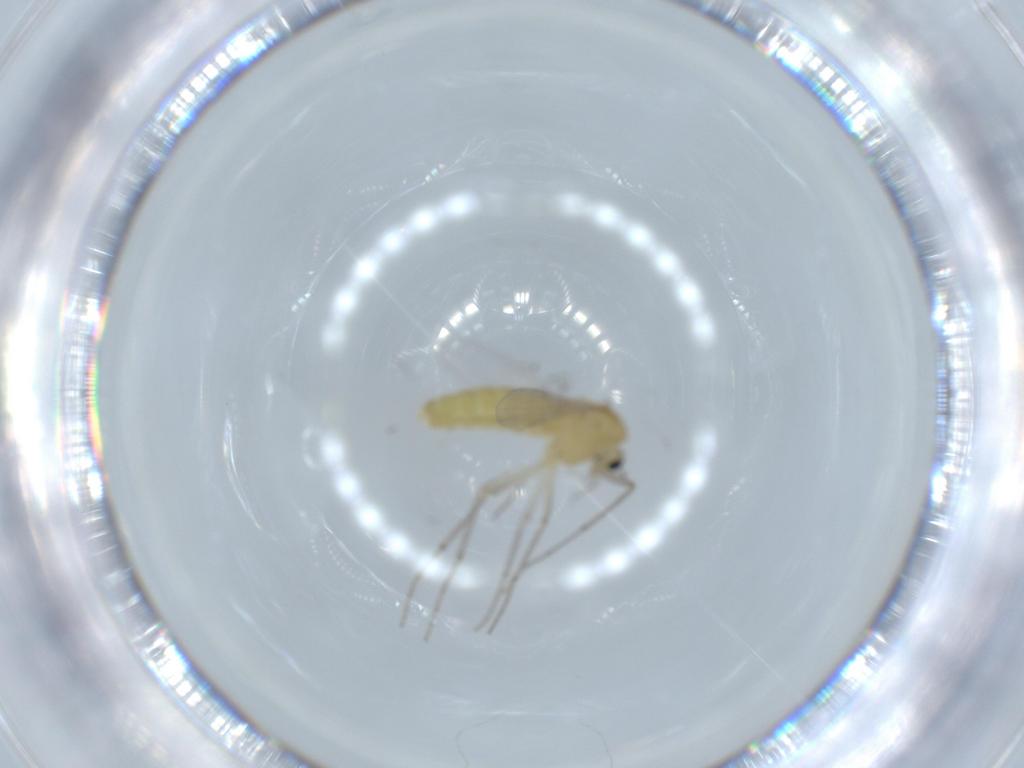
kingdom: Animalia
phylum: Arthropoda
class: Insecta
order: Diptera
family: Chironomidae
